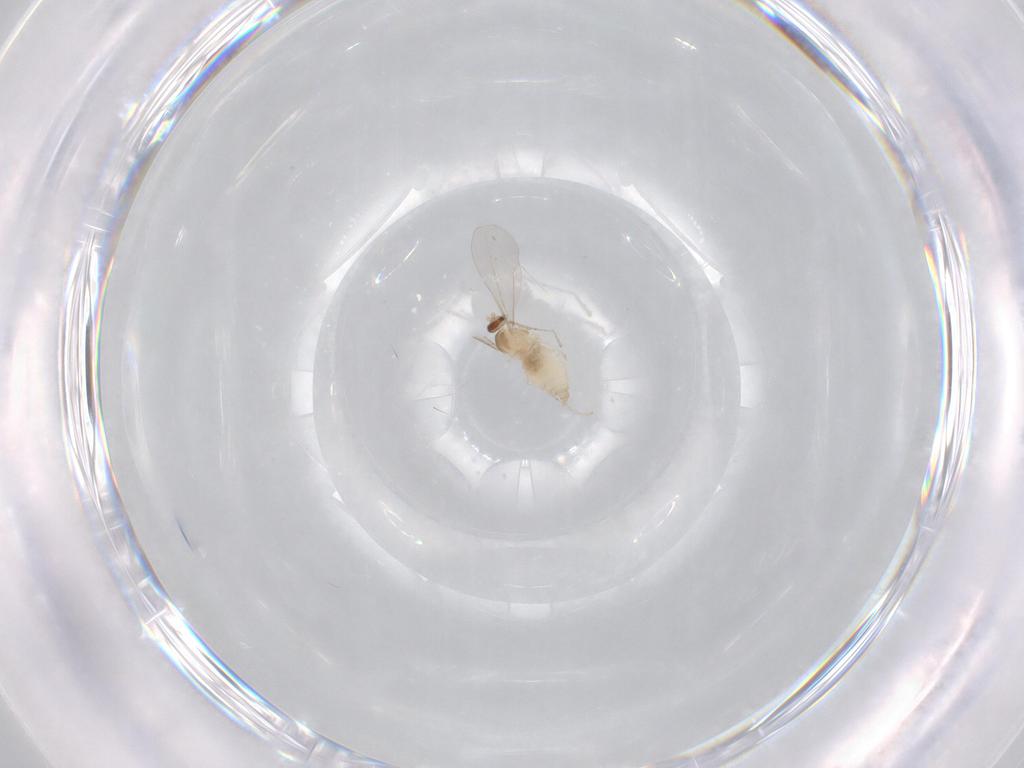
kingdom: Animalia
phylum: Arthropoda
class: Insecta
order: Diptera
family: Cecidomyiidae
